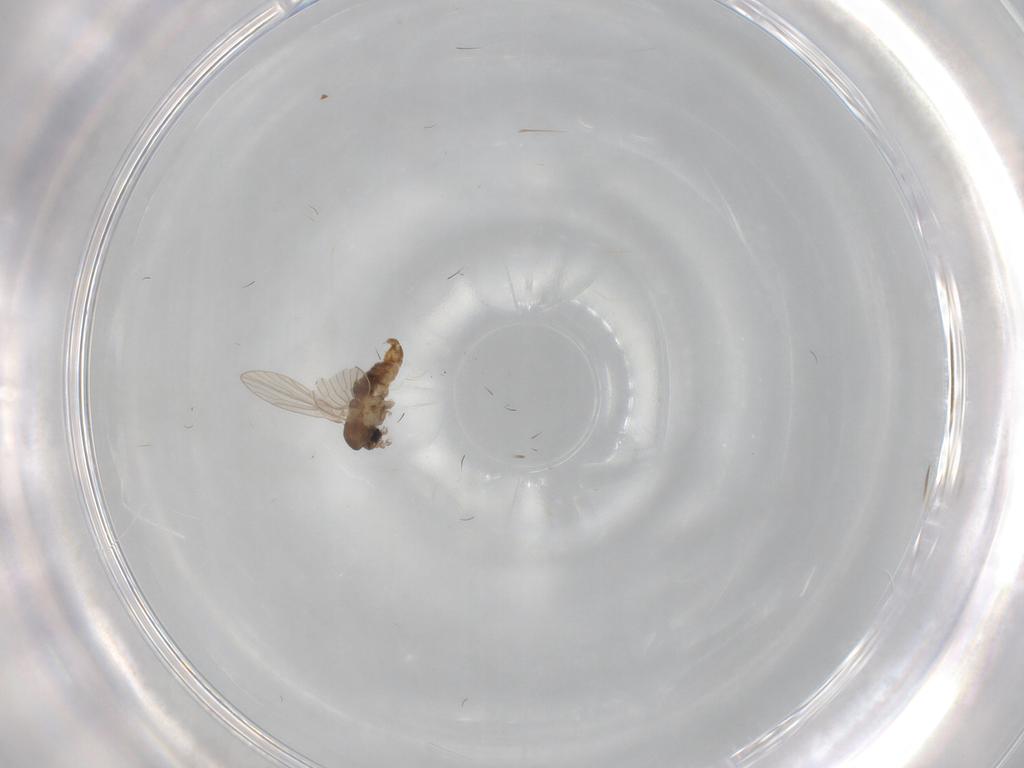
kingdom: Animalia
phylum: Arthropoda
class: Insecta
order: Diptera
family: Psychodidae
